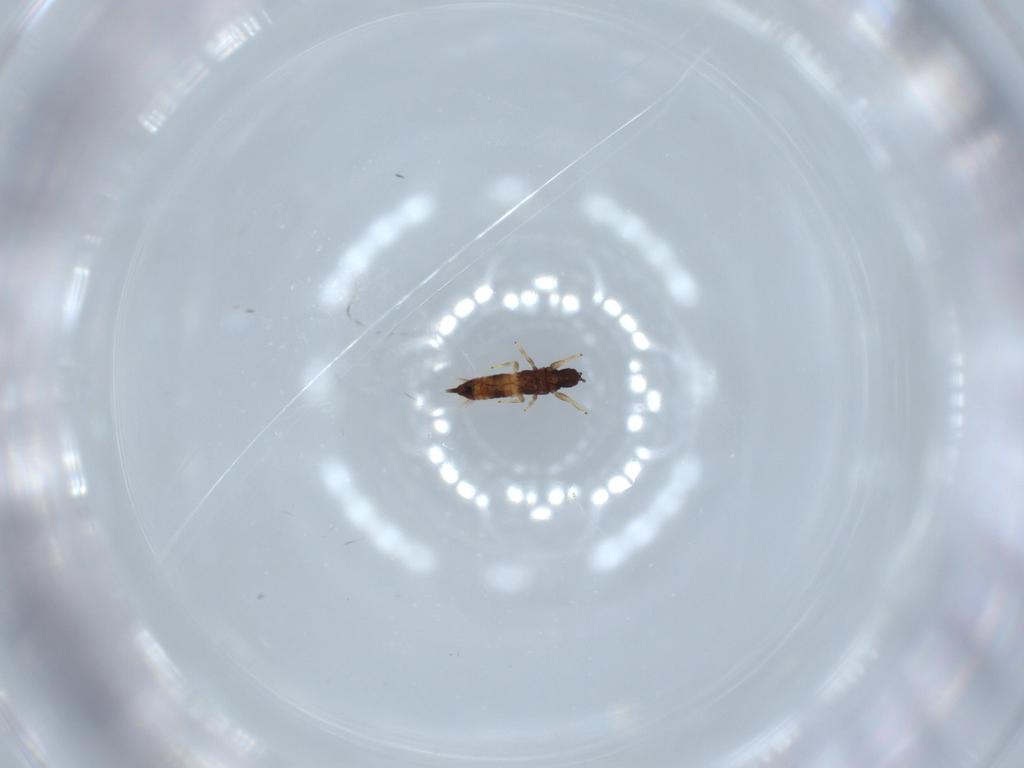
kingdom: Animalia
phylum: Arthropoda
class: Insecta
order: Thysanoptera
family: Phlaeothripidae
